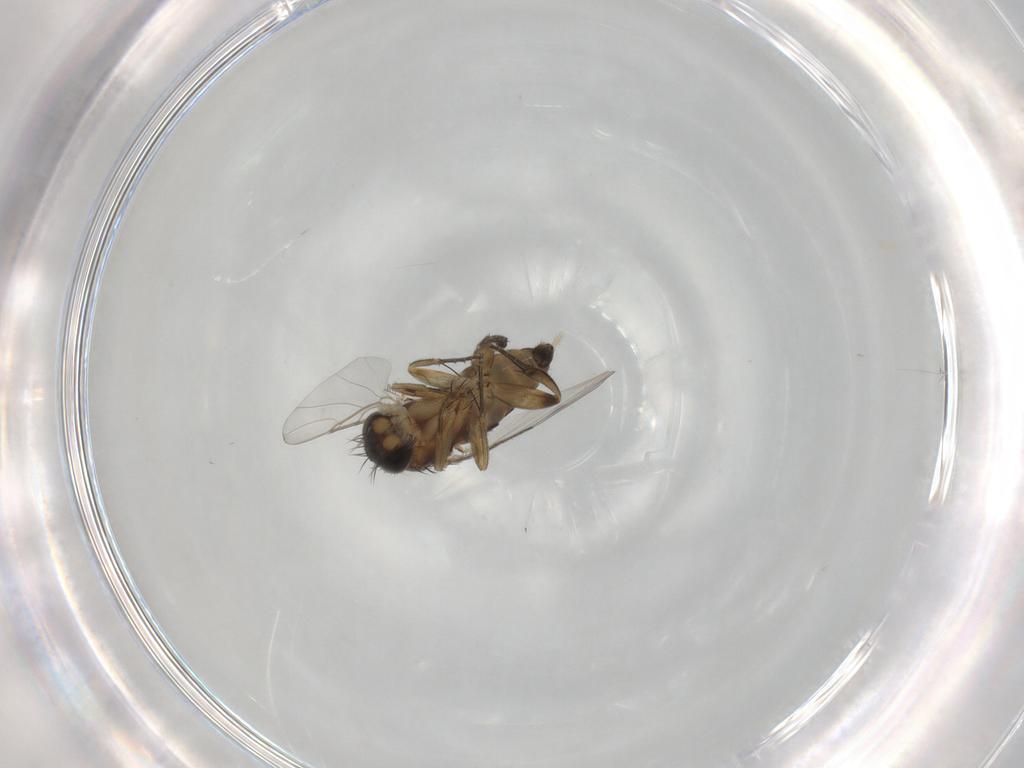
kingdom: Animalia
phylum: Arthropoda
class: Insecta
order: Diptera
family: Phoridae
